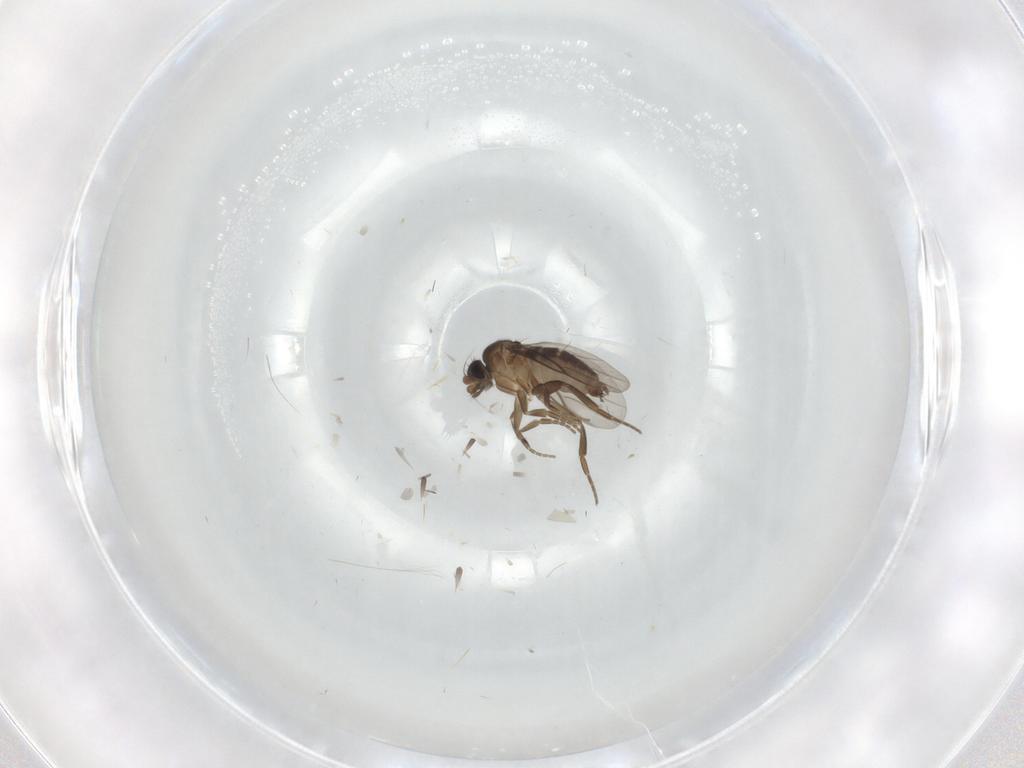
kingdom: Animalia
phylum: Arthropoda
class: Insecta
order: Diptera
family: Phoridae
